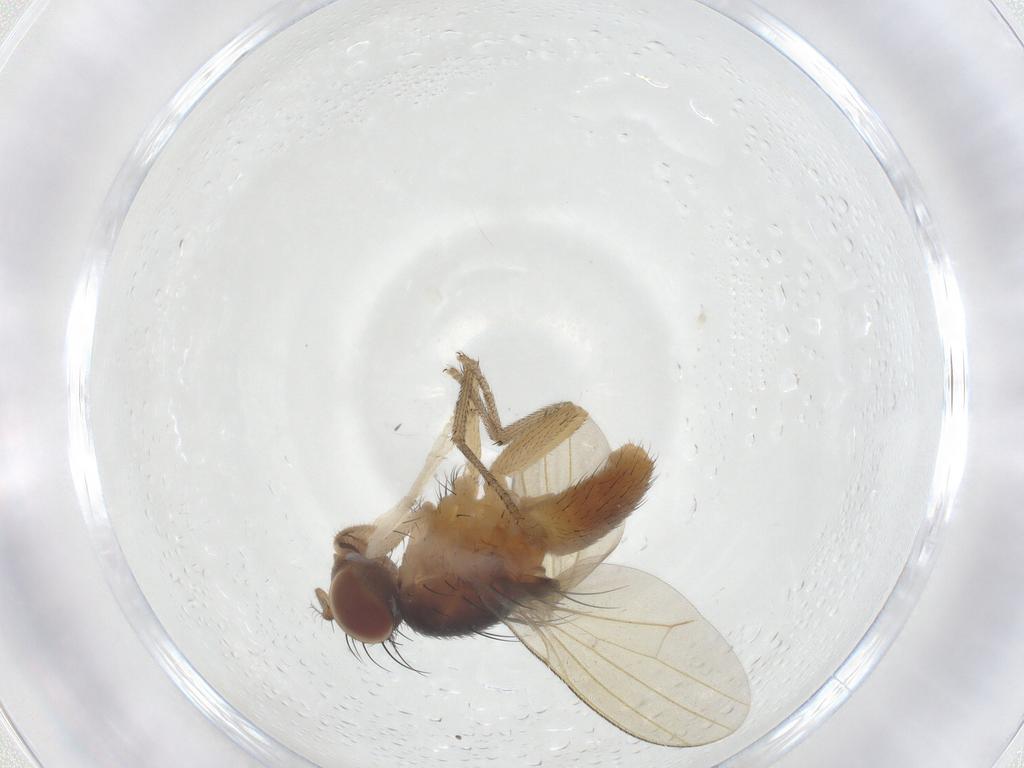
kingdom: Animalia
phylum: Arthropoda
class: Insecta
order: Diptera
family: Lauxaniidae
